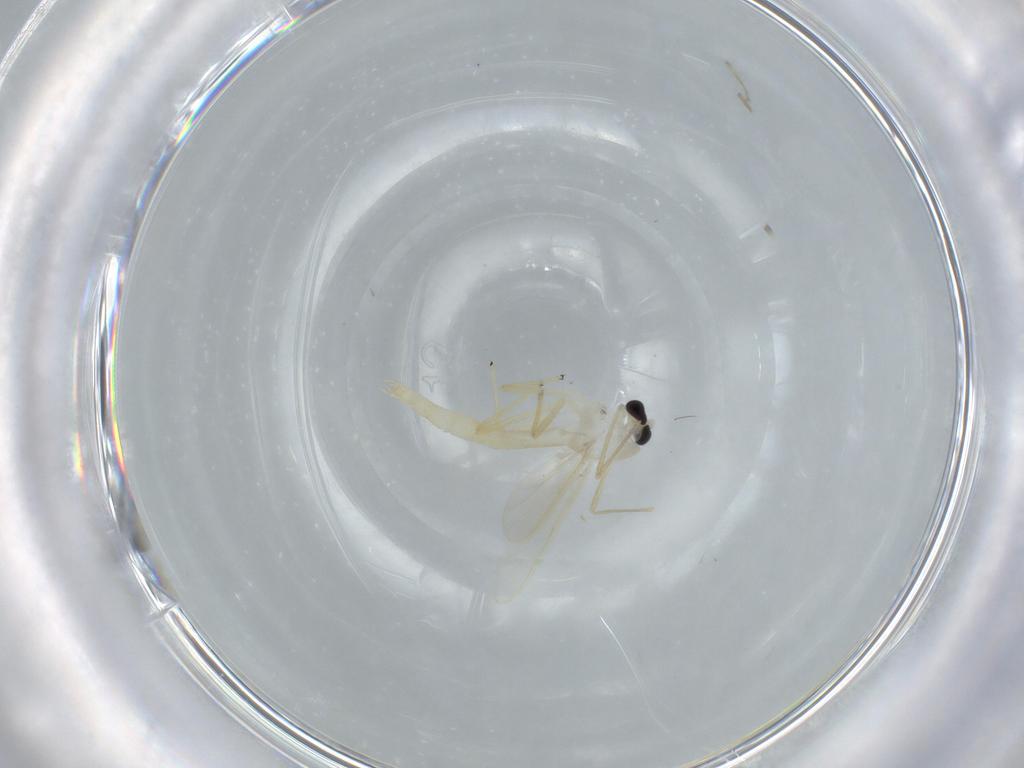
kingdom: Animalia
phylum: Arthropoda
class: Insecta
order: Diptera
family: Chironomidae
